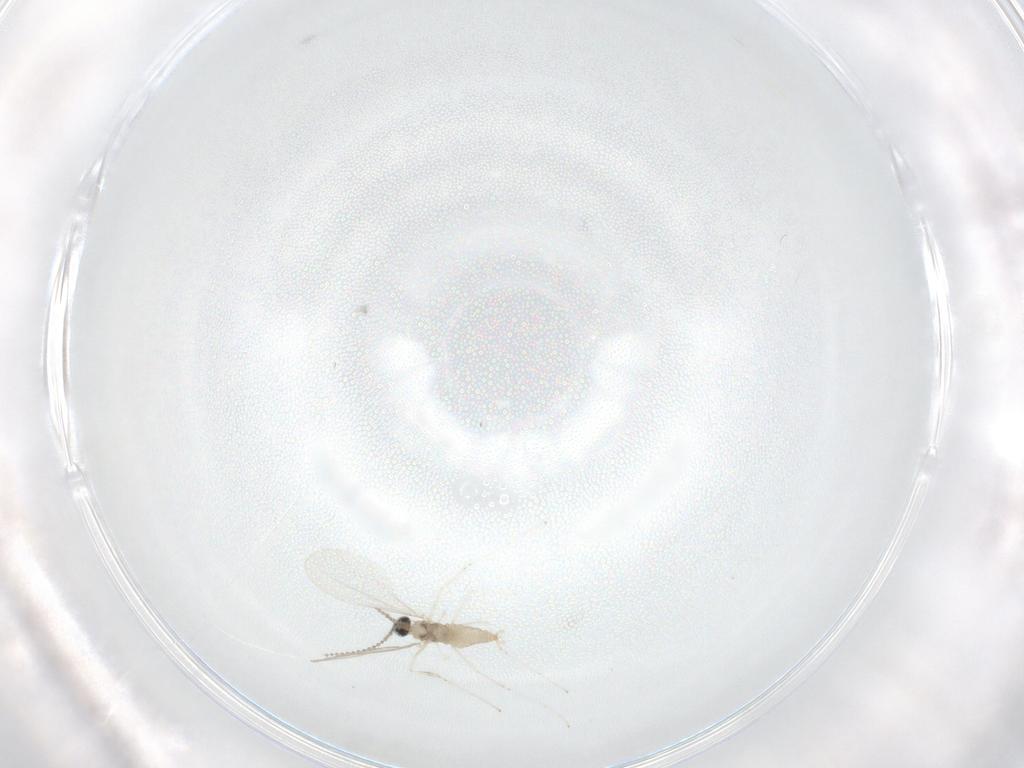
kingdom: Animalia
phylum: Arthropoda
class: Insecta
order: Diptera
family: Cecidomyiidae
